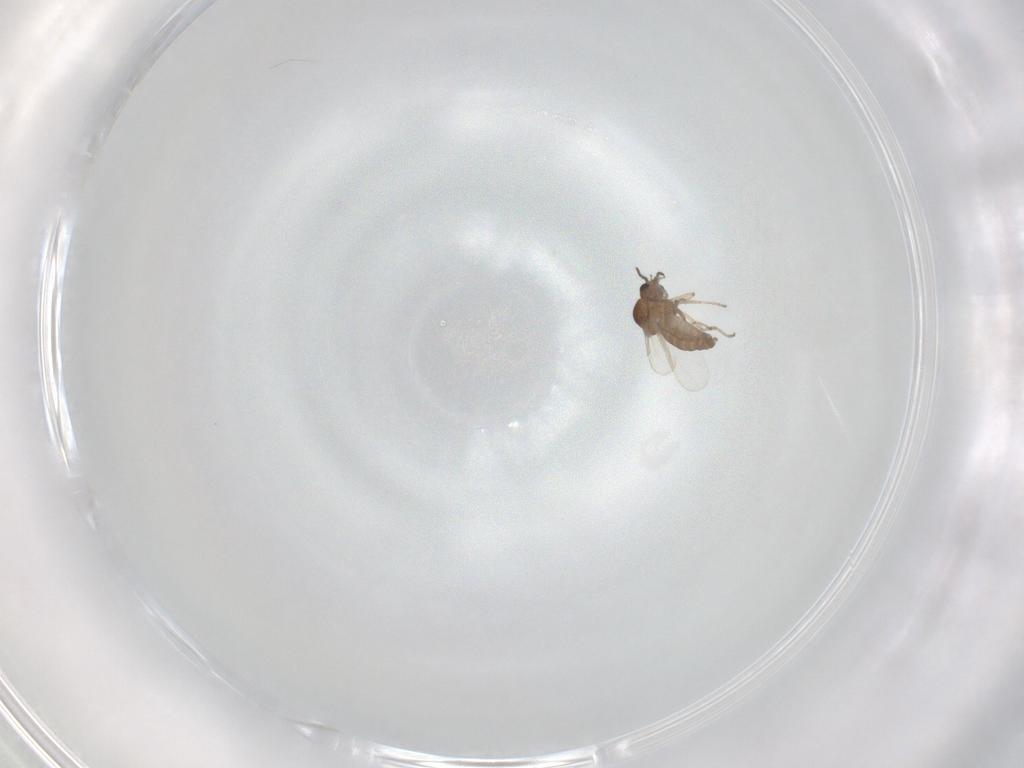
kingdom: Animalia
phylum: Arthropoda
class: Insecta
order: Diptera
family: Ceratopogonidae
